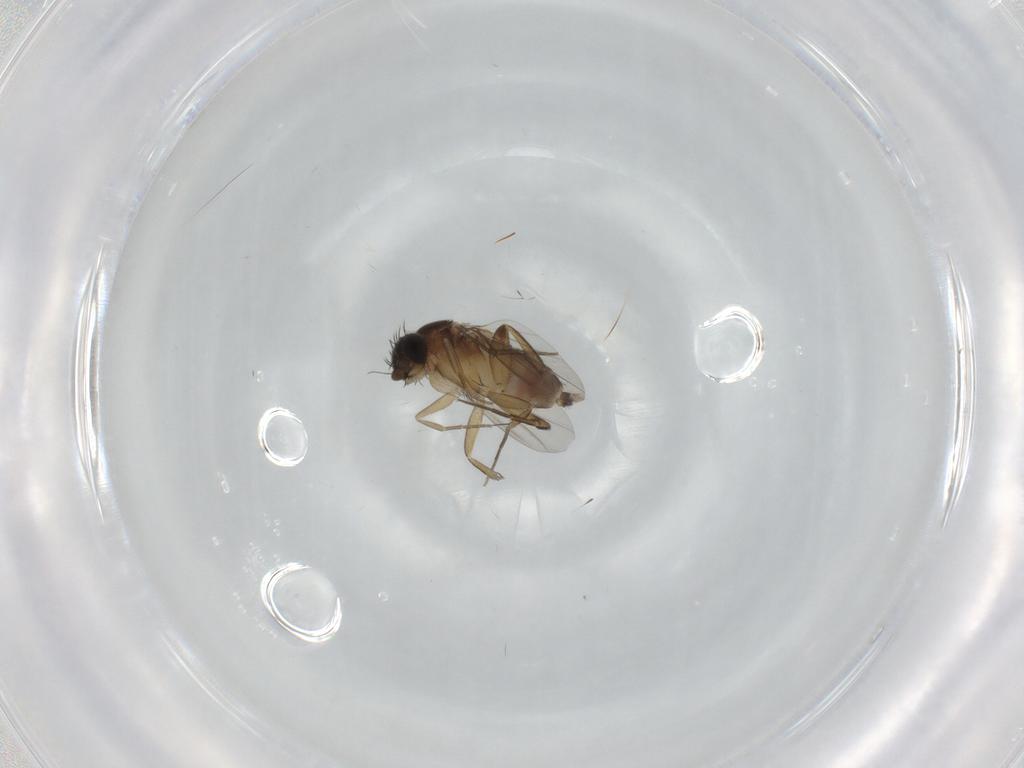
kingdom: Animalia
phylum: Arthropoda
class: Insecta
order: Diptera
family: Phoridae
